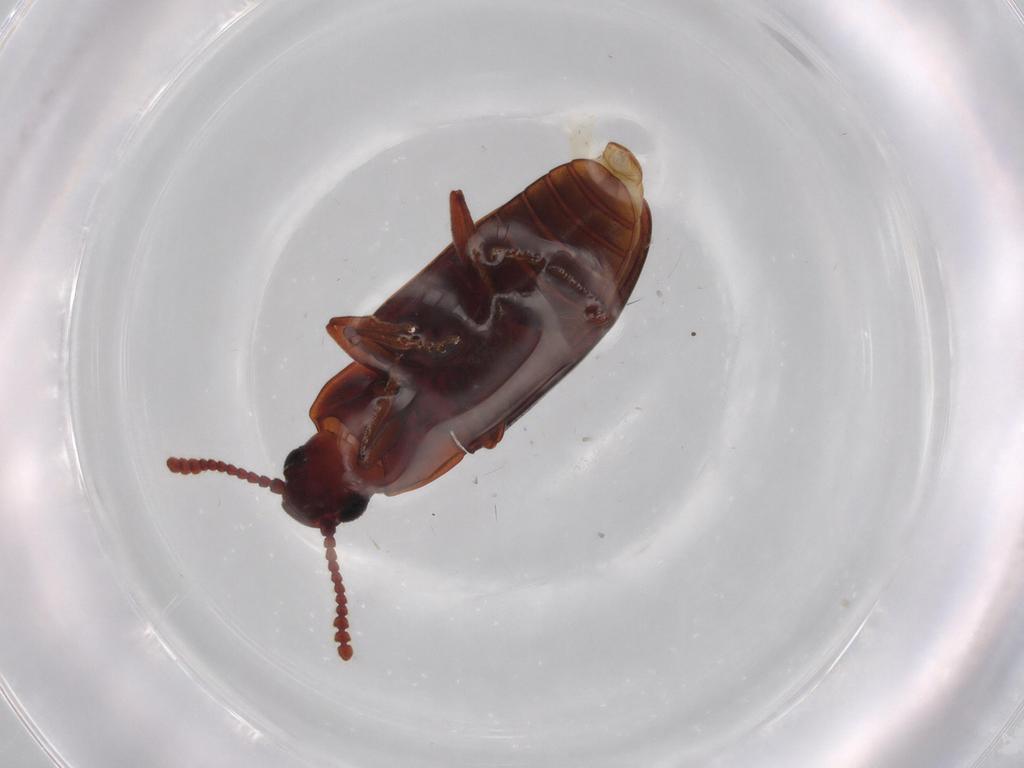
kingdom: Animalia
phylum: Arthropoda
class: Insecta
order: Coleoptera
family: Erotylidae
